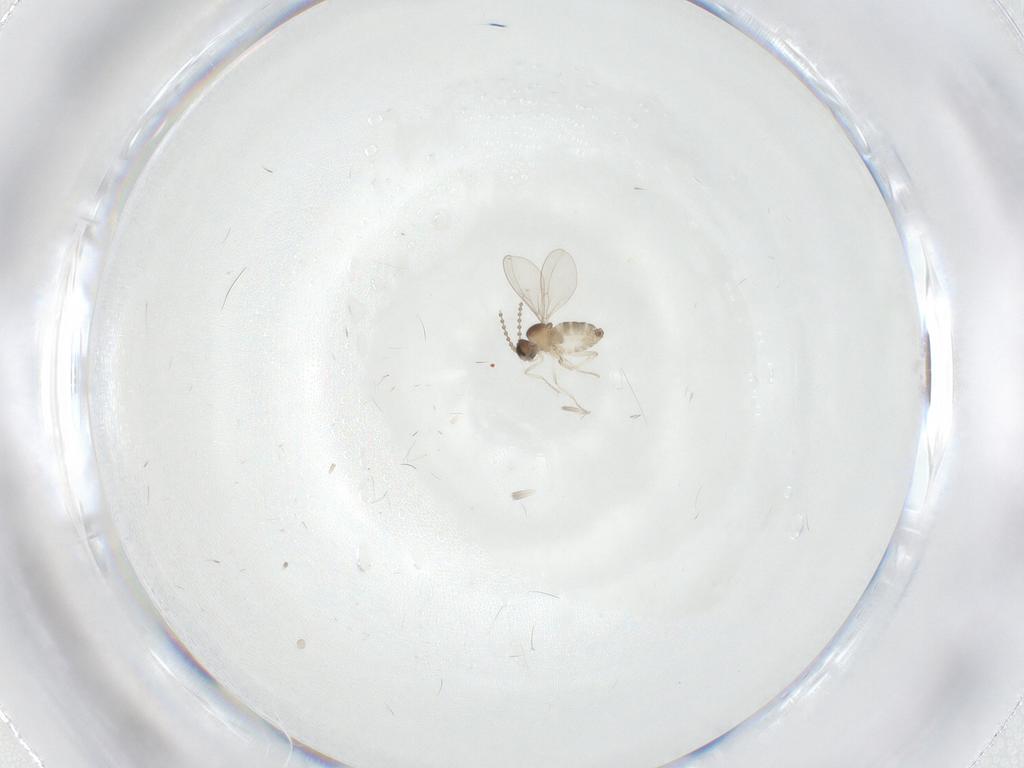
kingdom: Animalia
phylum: Arthropoda
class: Insecta
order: Diptera
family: Cecidomyiidae
